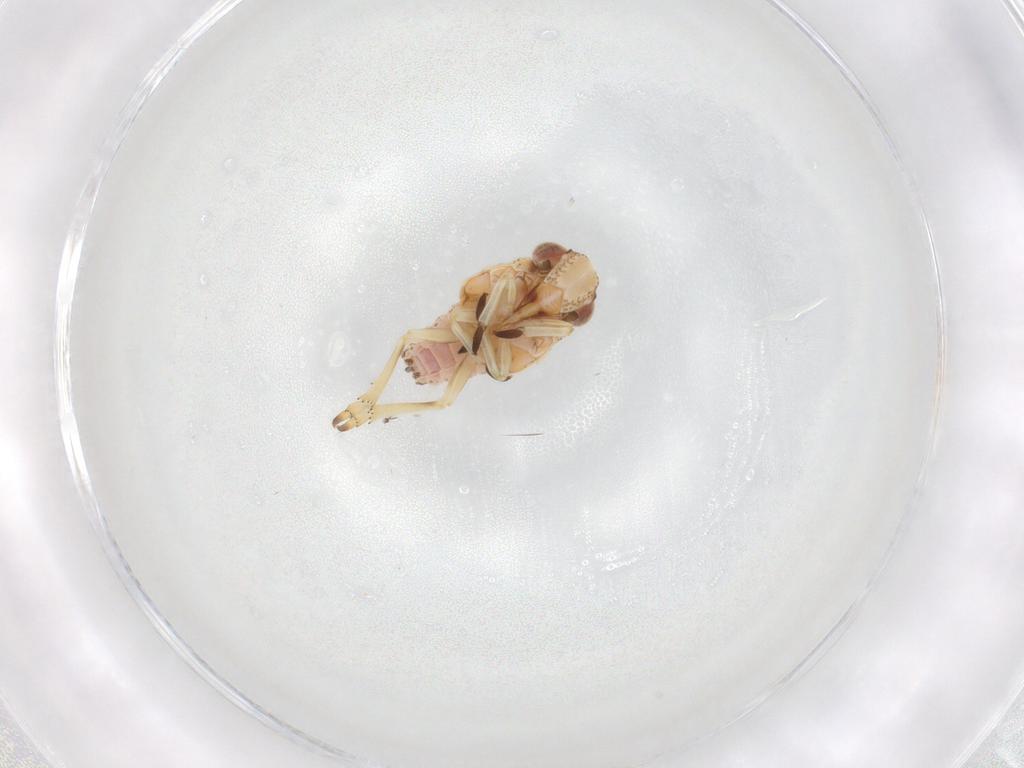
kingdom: Animalia
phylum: Arthropoda
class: Insecta
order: Hemiptera
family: Tropiduchidae
